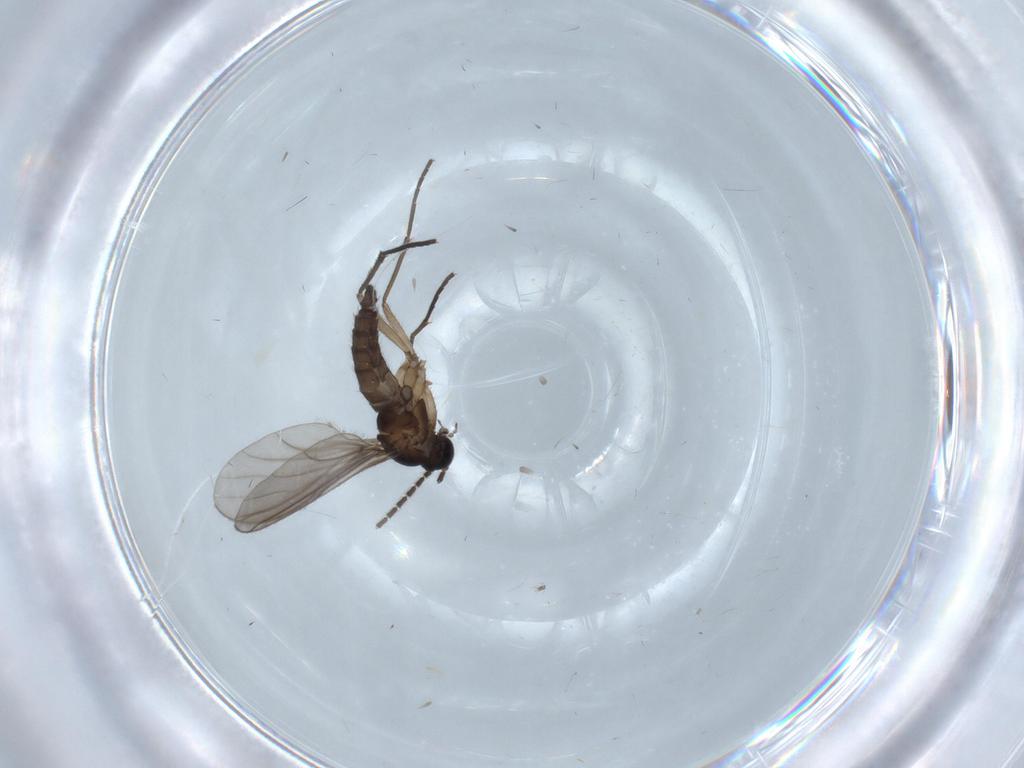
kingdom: Animalia
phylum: Arthropoda
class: Insecta
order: Diptera
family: Sciaridae
